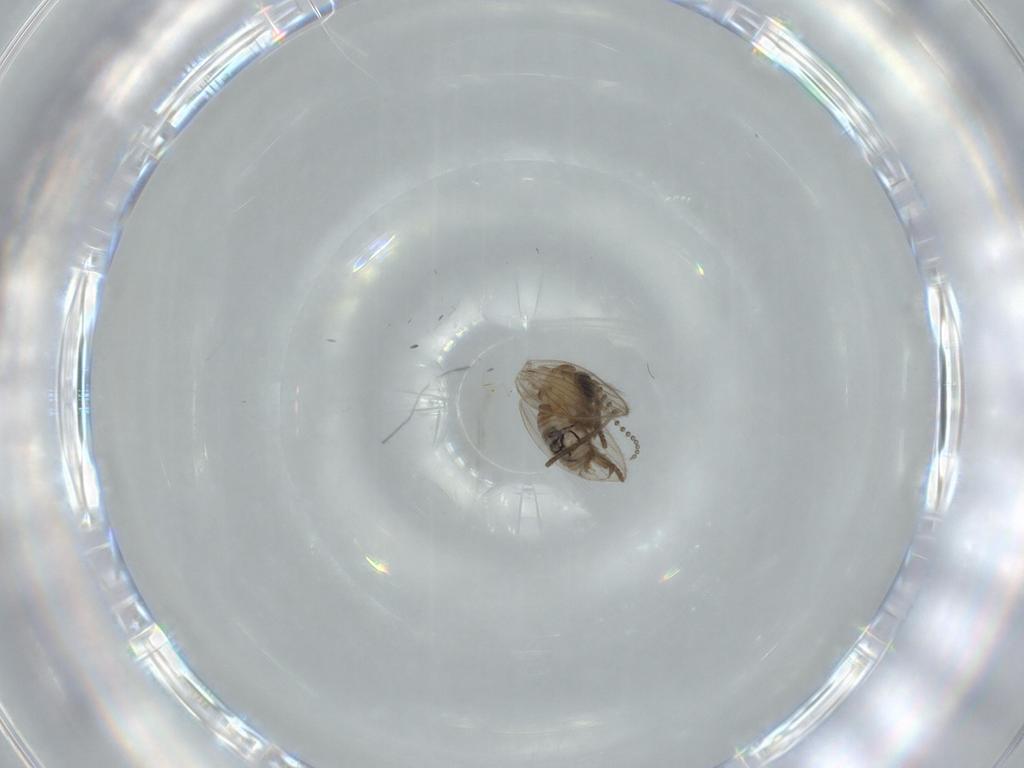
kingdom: Animalia
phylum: Arthropoda
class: Insecta
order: Diptera
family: Psychodidae
